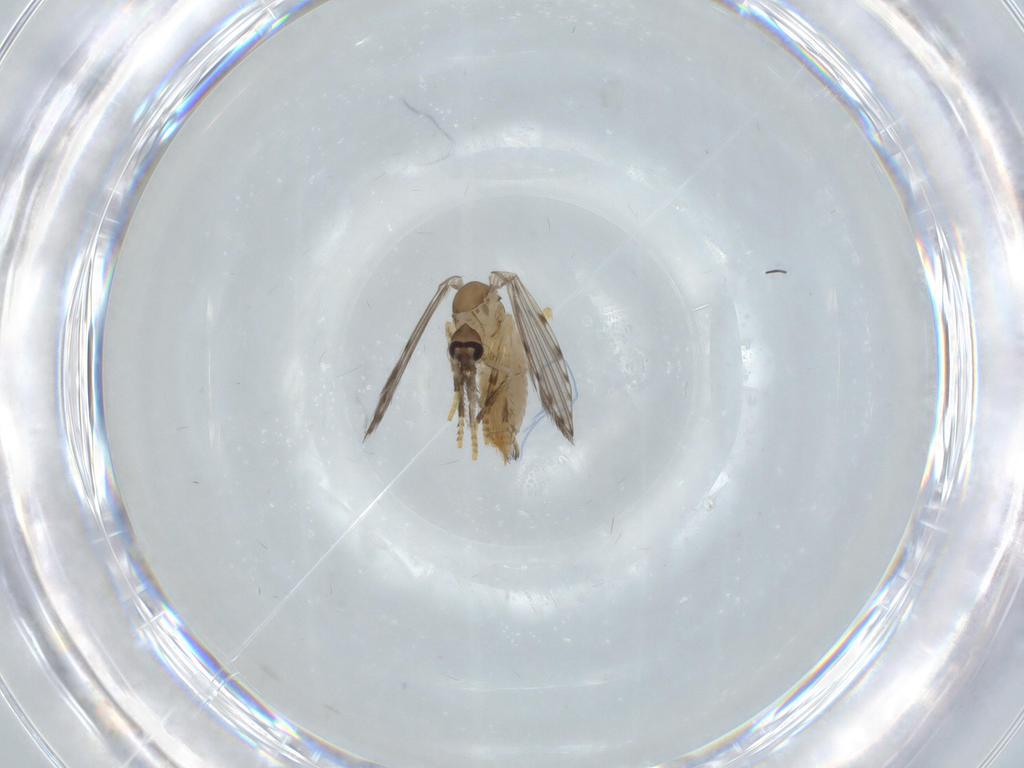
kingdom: Animalia
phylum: Arthropoda
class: Insecta
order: Diptera
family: Psychodidae
